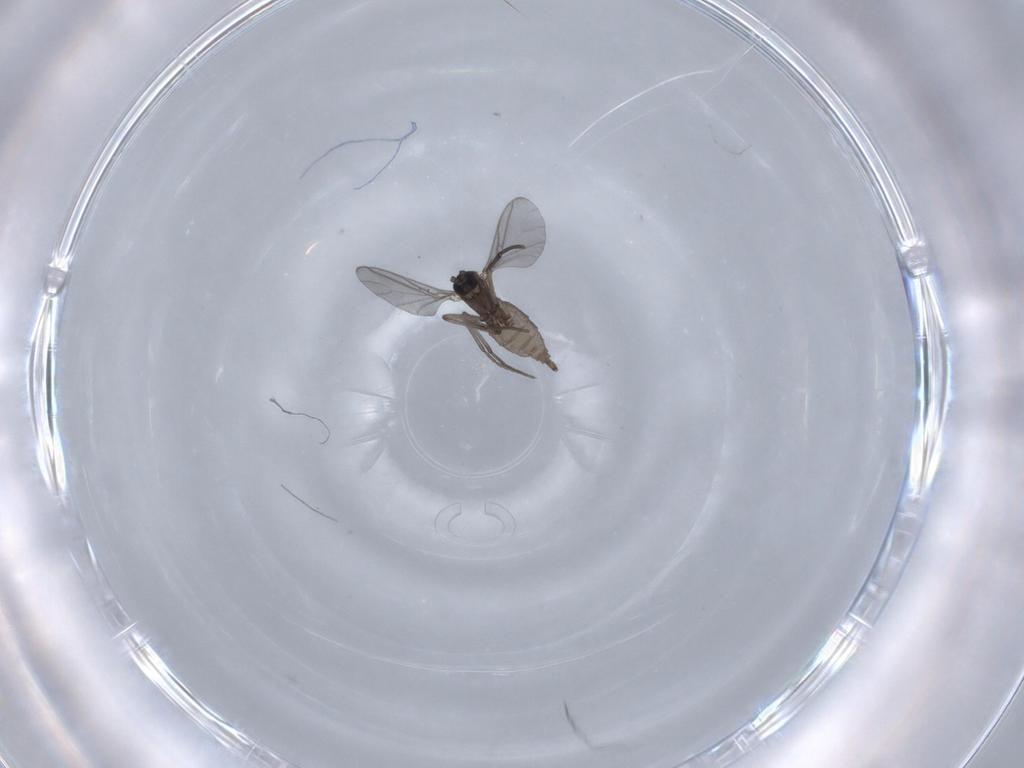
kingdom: Animalia
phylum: Arthropoda
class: Insecta
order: Diptera
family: Sciaridae
